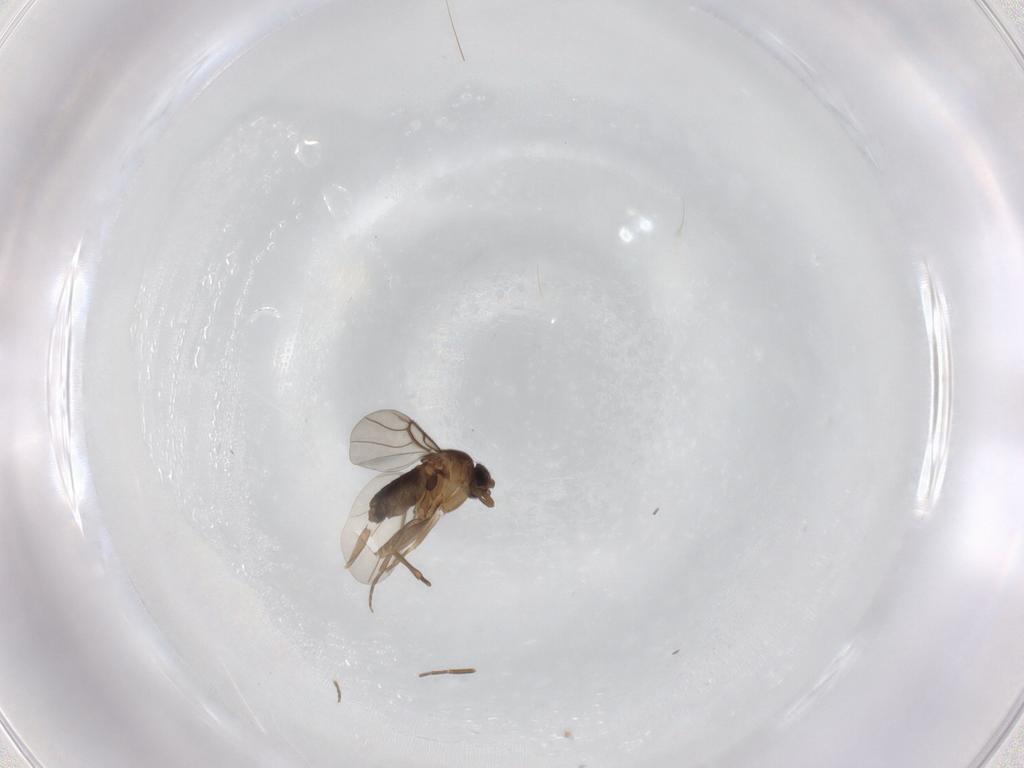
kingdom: Animalia
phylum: Arthropoda
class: Insecta
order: Diptera
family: Phoridae
